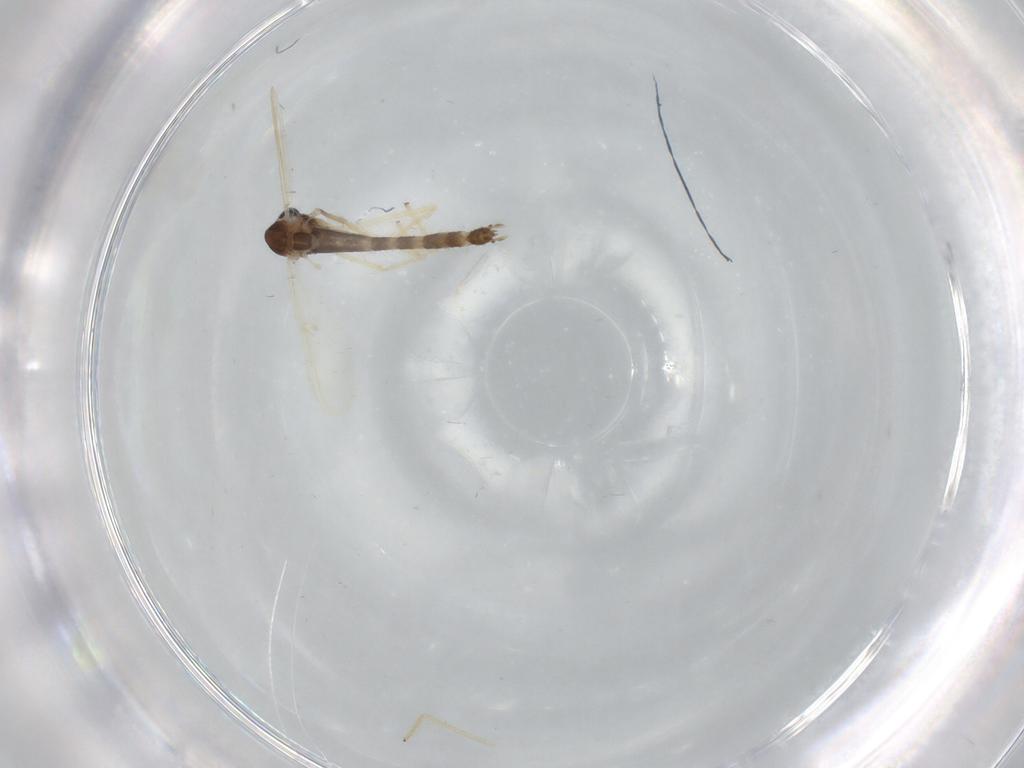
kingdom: Animalia
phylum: Arthropoda
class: Insecta
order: Diptera
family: Chironomidae
